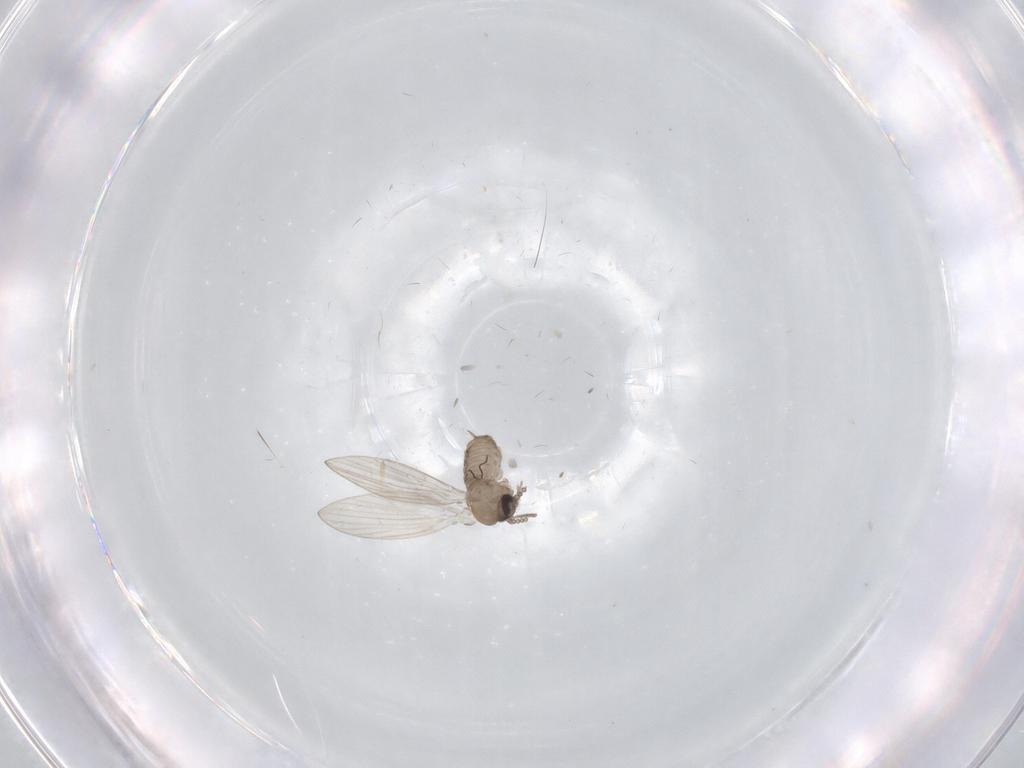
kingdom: Animalia
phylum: Arthropoda
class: Insecta
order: Diptera
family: Psychodidae
